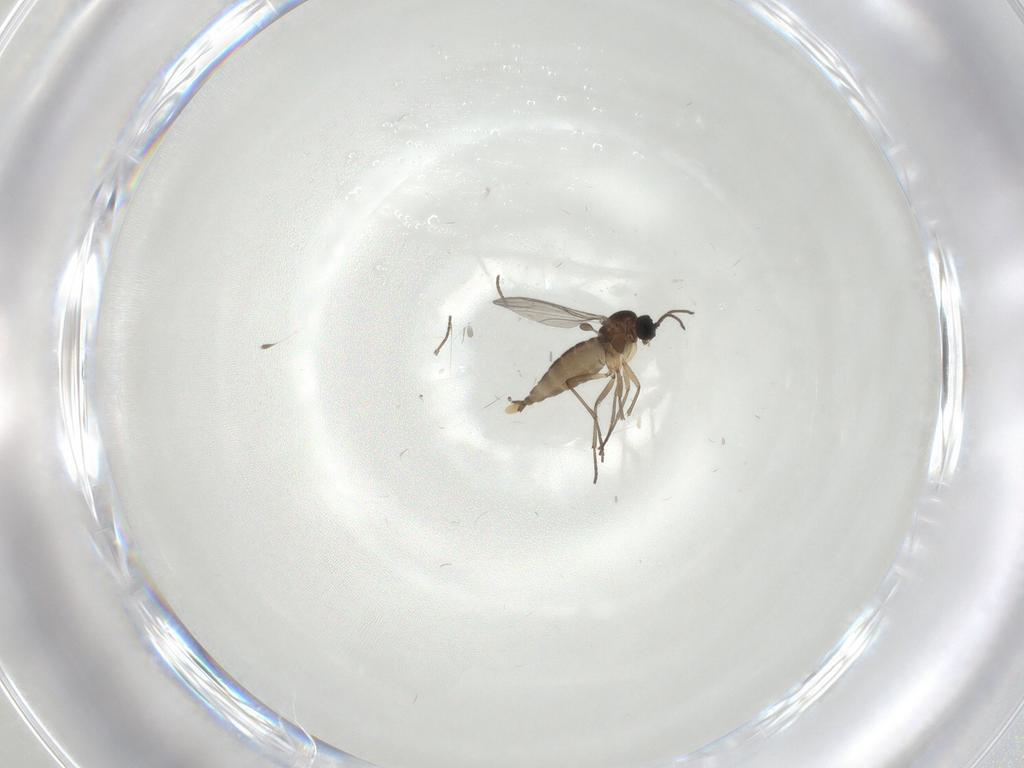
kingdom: Animalia
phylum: Arthropoda
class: Insecta
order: Diptera
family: Sciaridae
